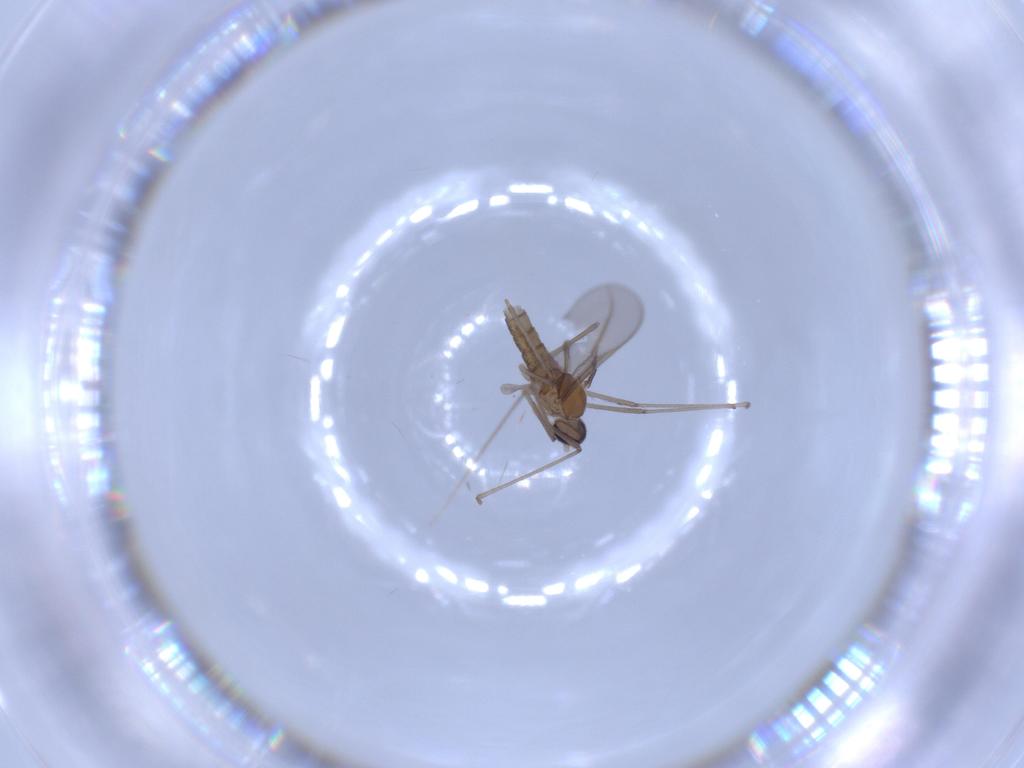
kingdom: Animalia
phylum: Arthropoda
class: Insecta
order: Diptera
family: Cecidomyiidae
